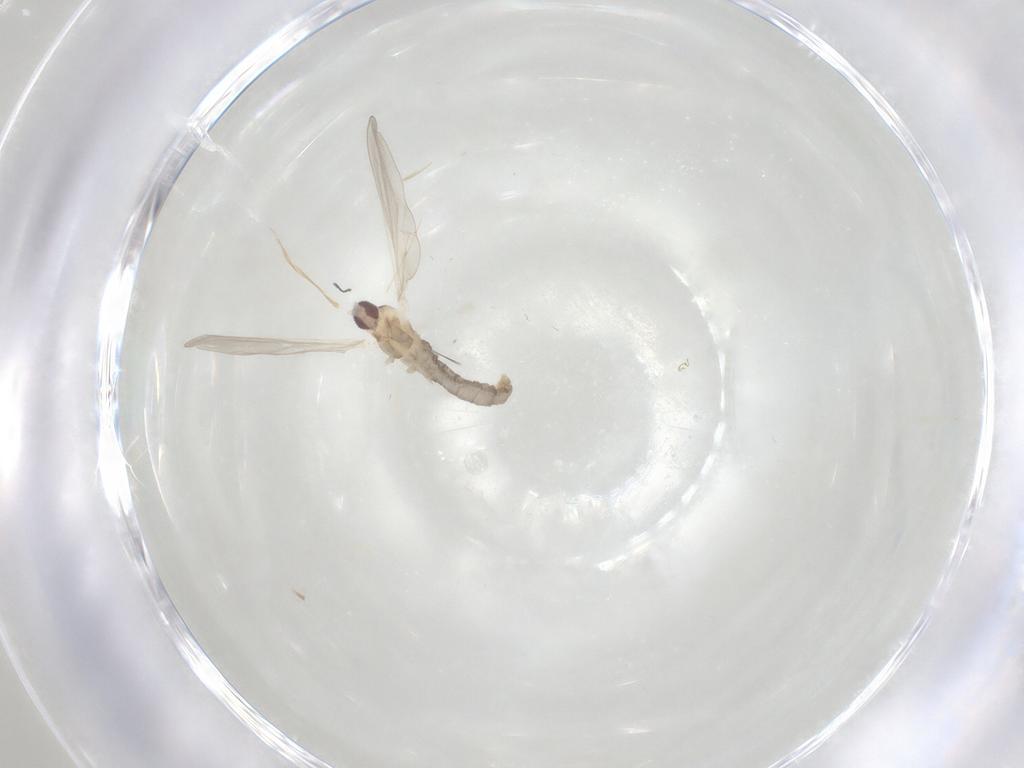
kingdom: Animalia
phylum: Arthropoda
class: Insecta
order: Diptera
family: Cecidomyiidae
